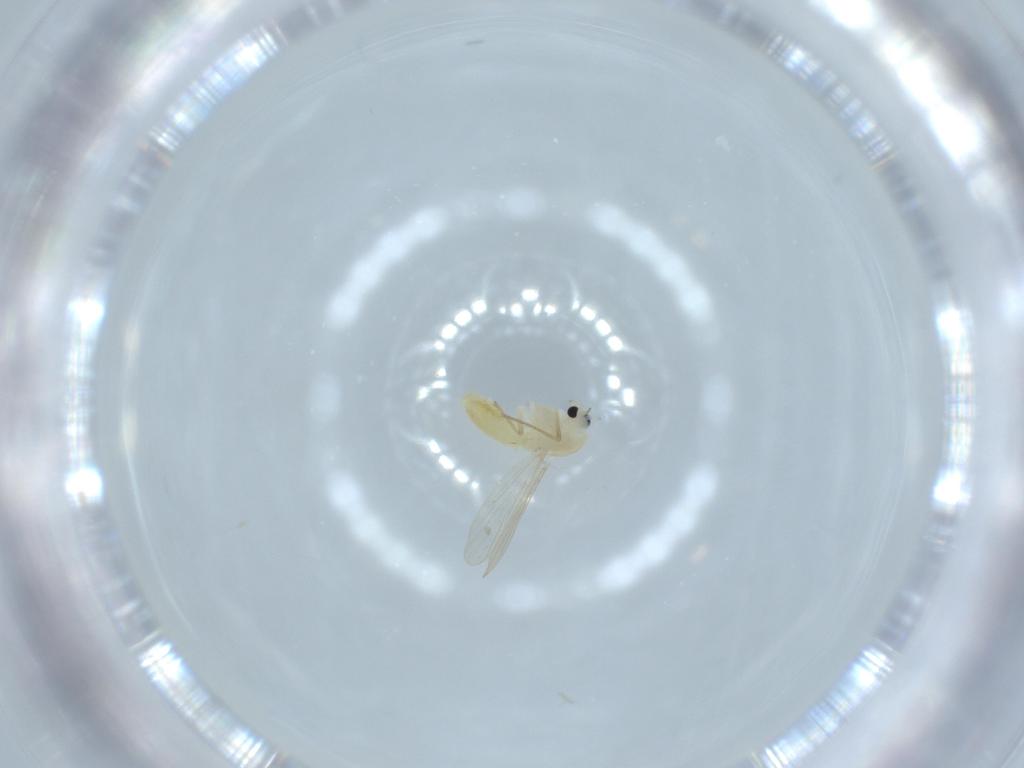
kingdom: Animalia
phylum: Arthropoda
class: Insecta
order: Diptera
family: Chironomidae
